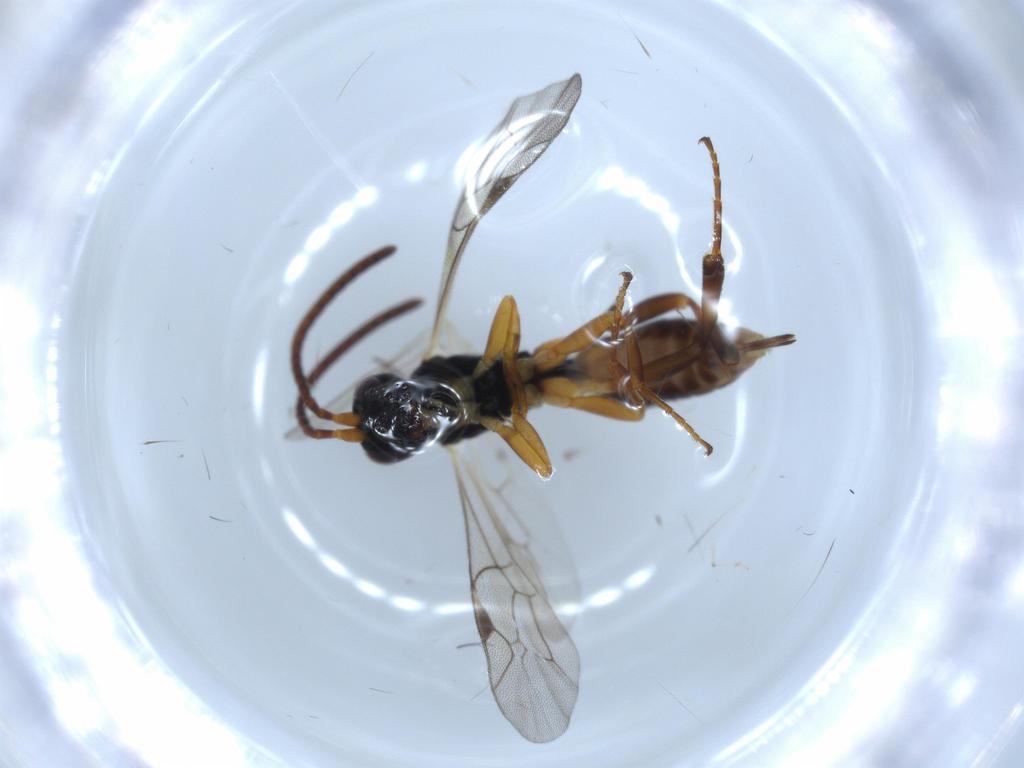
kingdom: Animalia
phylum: Arthropoda
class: Insecta
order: Hymenoptera
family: Ichneumonidae
